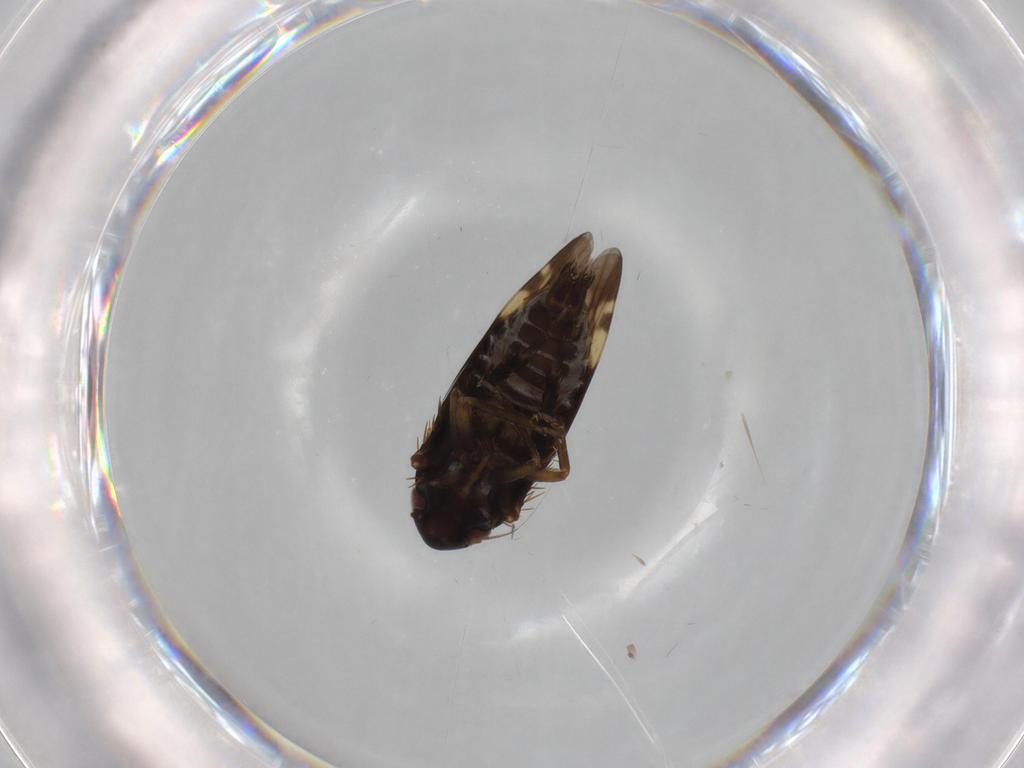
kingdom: Animalia
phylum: Arthropoda
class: Insecta
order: Hemiptera
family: Cicadellidae
